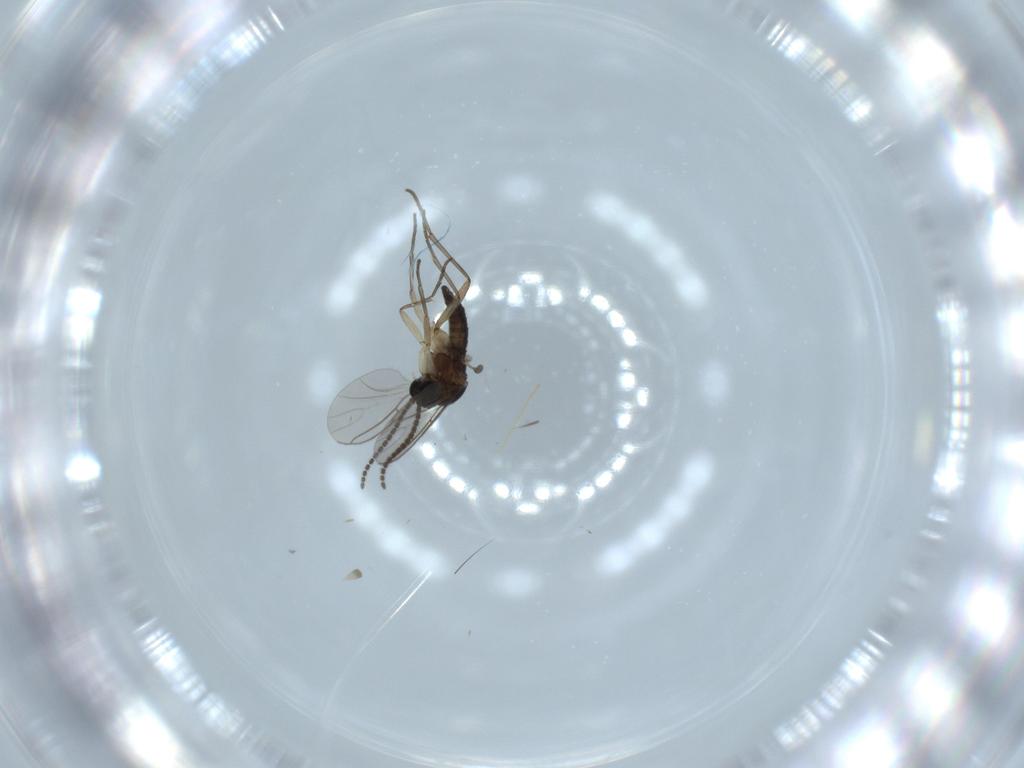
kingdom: Animalia
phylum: Arthropoda
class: Insecta
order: Diptera
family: Sciaridae
